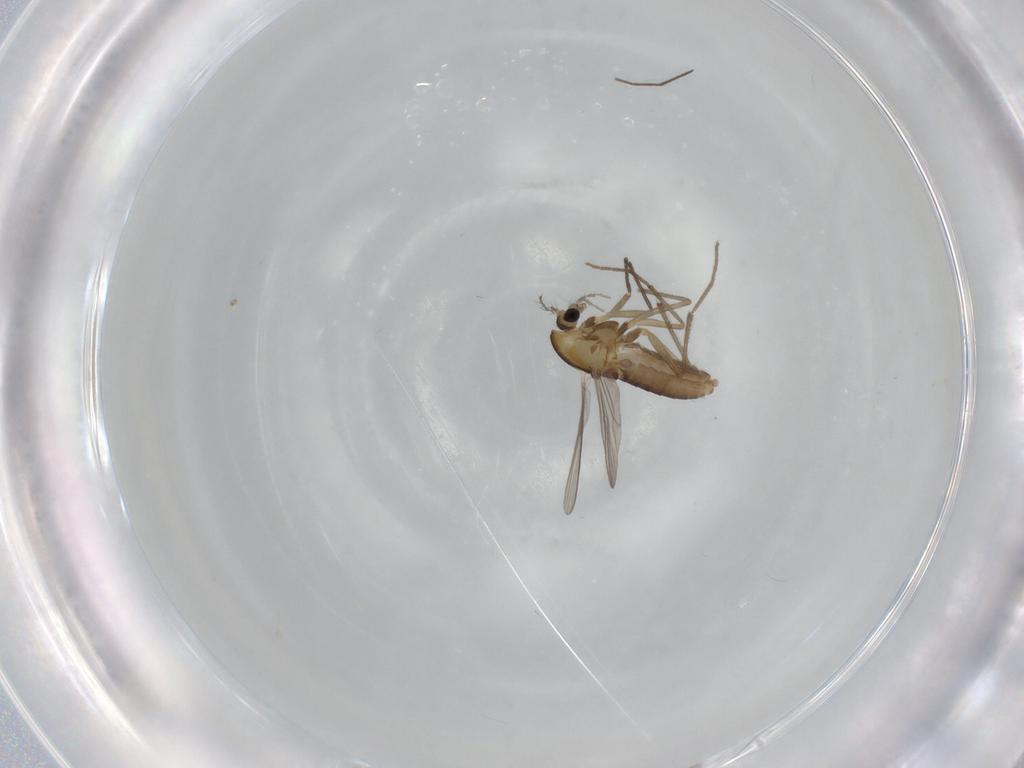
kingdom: Animalia
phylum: Arthropoda
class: Insecta
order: Diptera
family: Chironomidae
